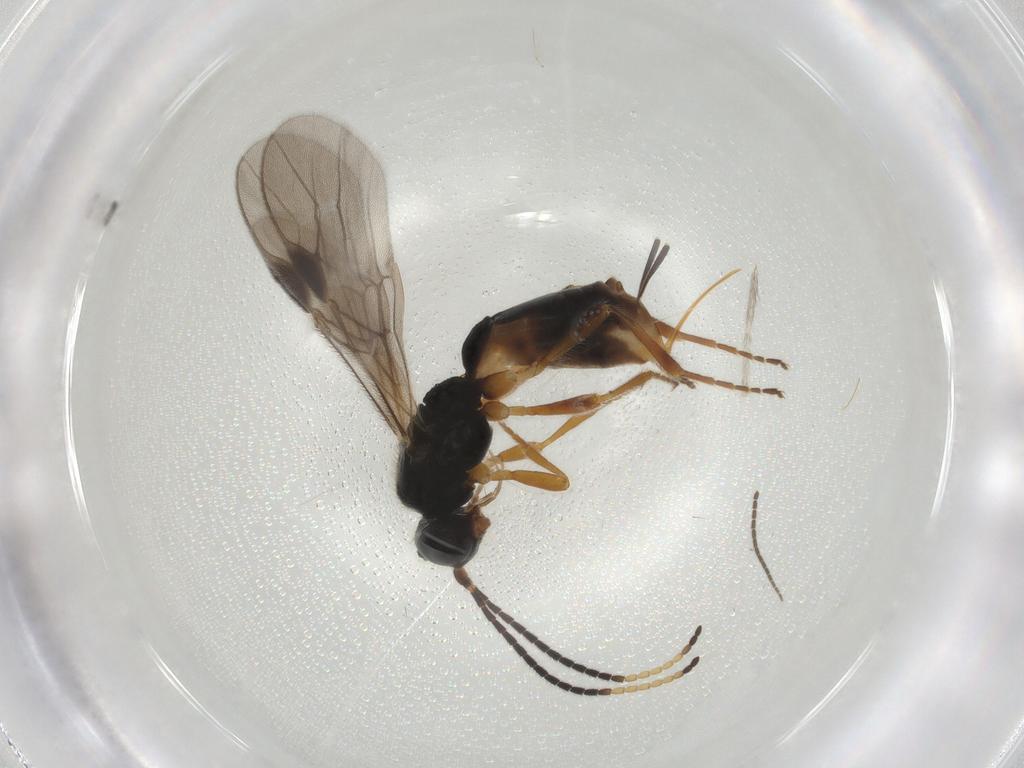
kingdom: Animalia
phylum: Arthropoda
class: Insecta
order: Hymenoptera
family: Braconidae
